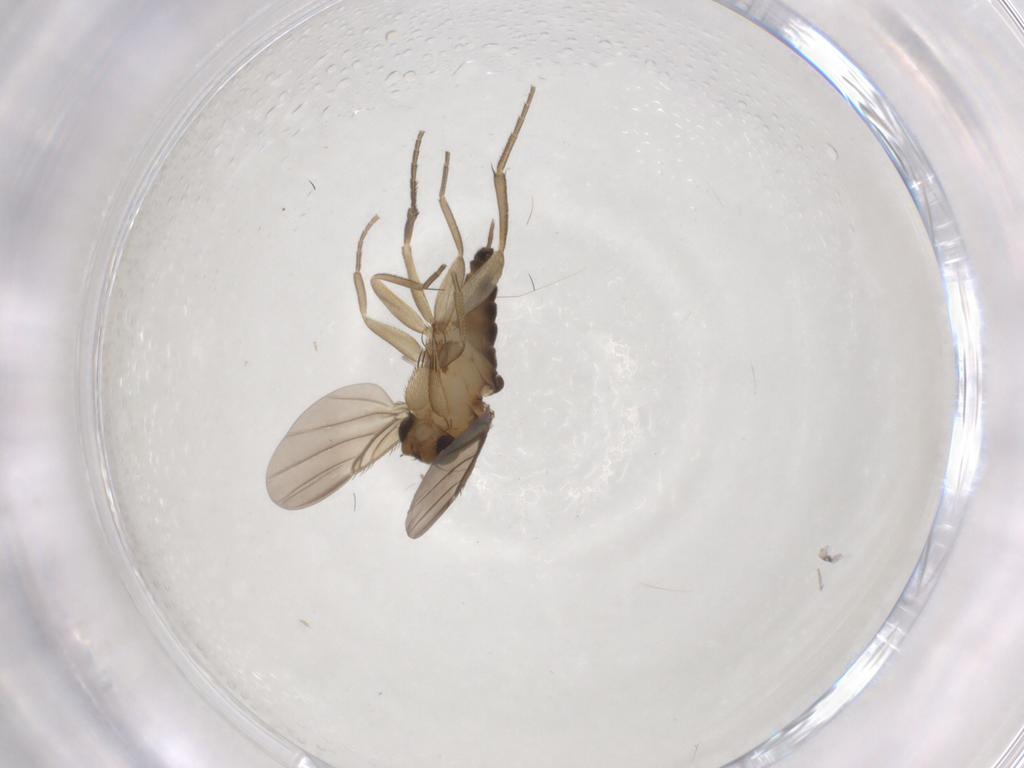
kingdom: Animalia
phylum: Arthropoda
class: Insecta
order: Diptera
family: Phoridae
